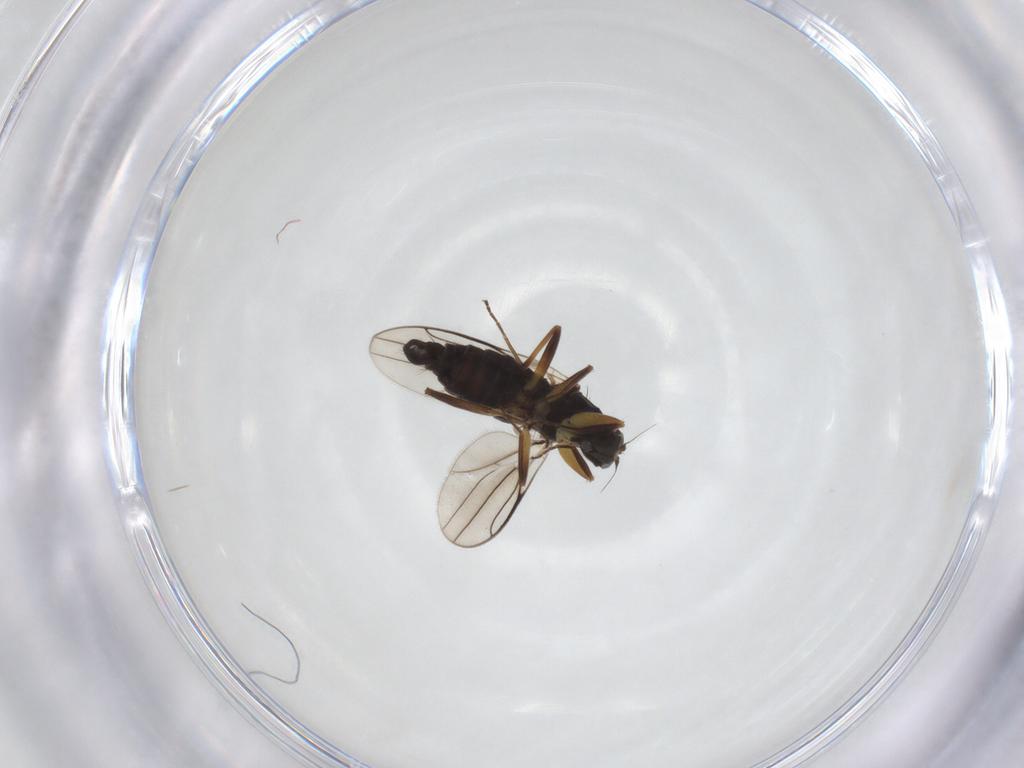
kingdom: Animalia
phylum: Arthropoda
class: Insecta
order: Diptera
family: Hybotidae
